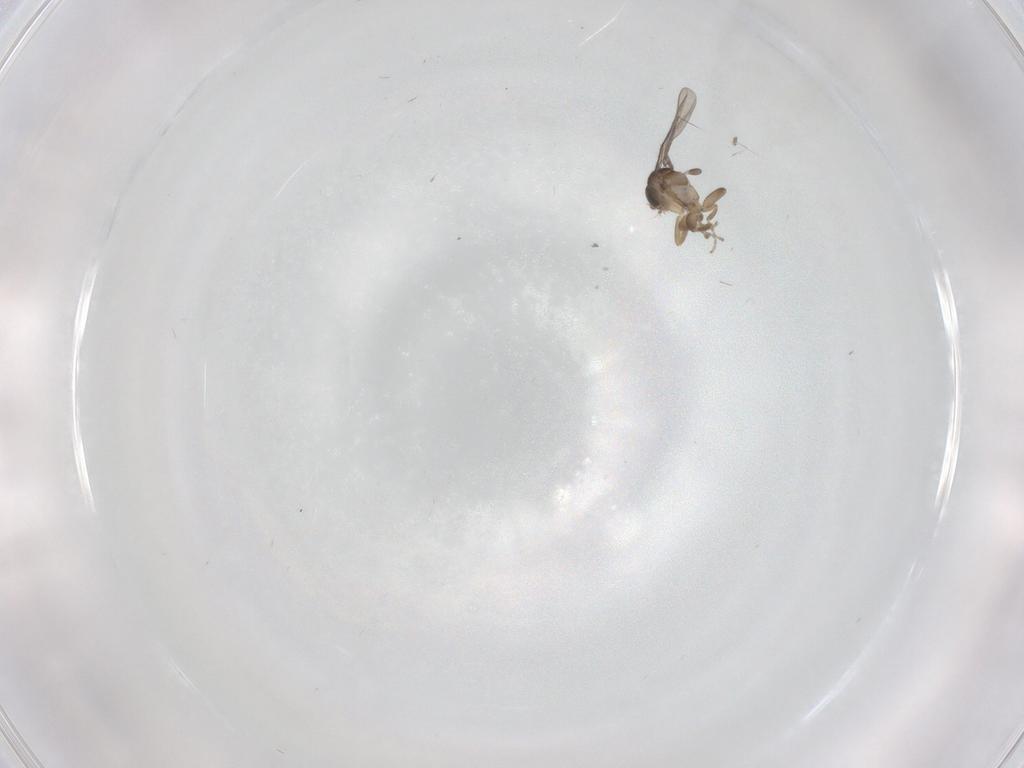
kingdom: Animalia
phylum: Arthropoda
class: Insecta
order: Diptera
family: Phoridae
